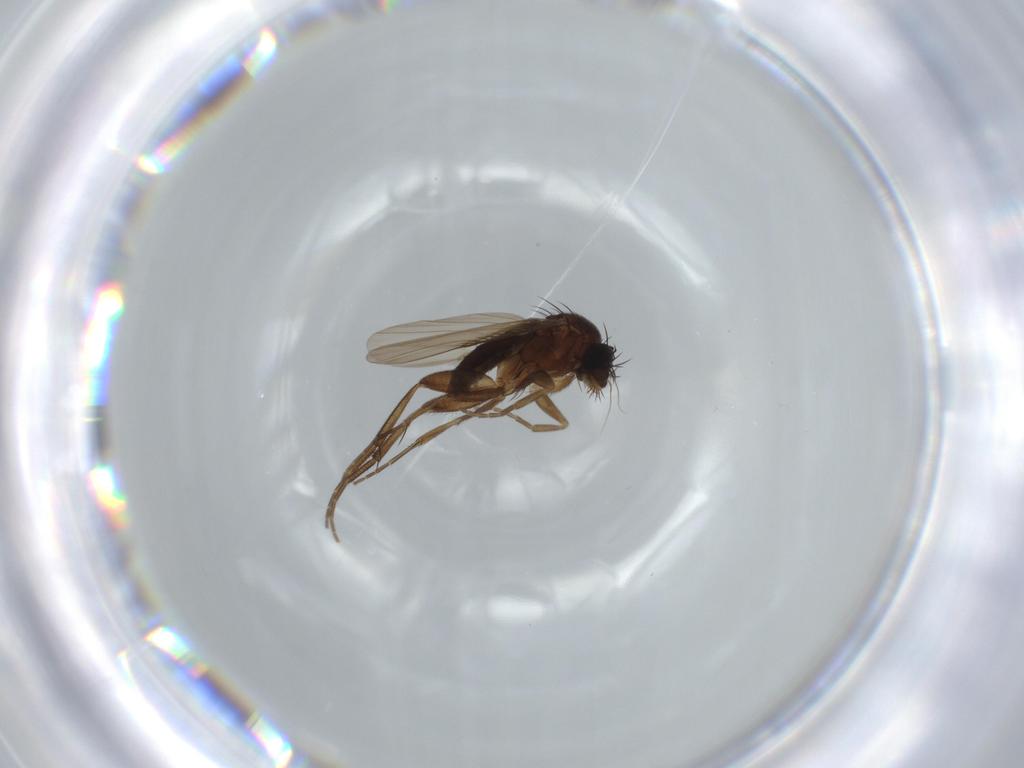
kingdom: Animalia
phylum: Arthropoda
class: Insecta
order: Diptera
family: Phoridae
